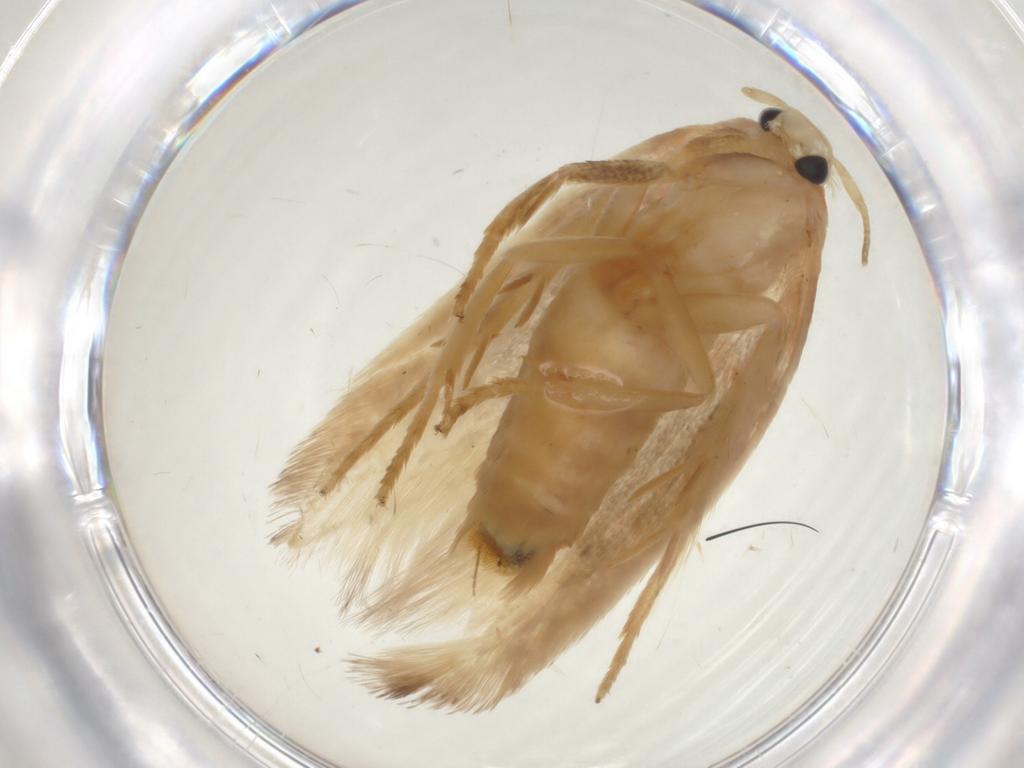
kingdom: Animalia
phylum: Arthropoda
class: Insecta
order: Lepidoptera
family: Geometridae
